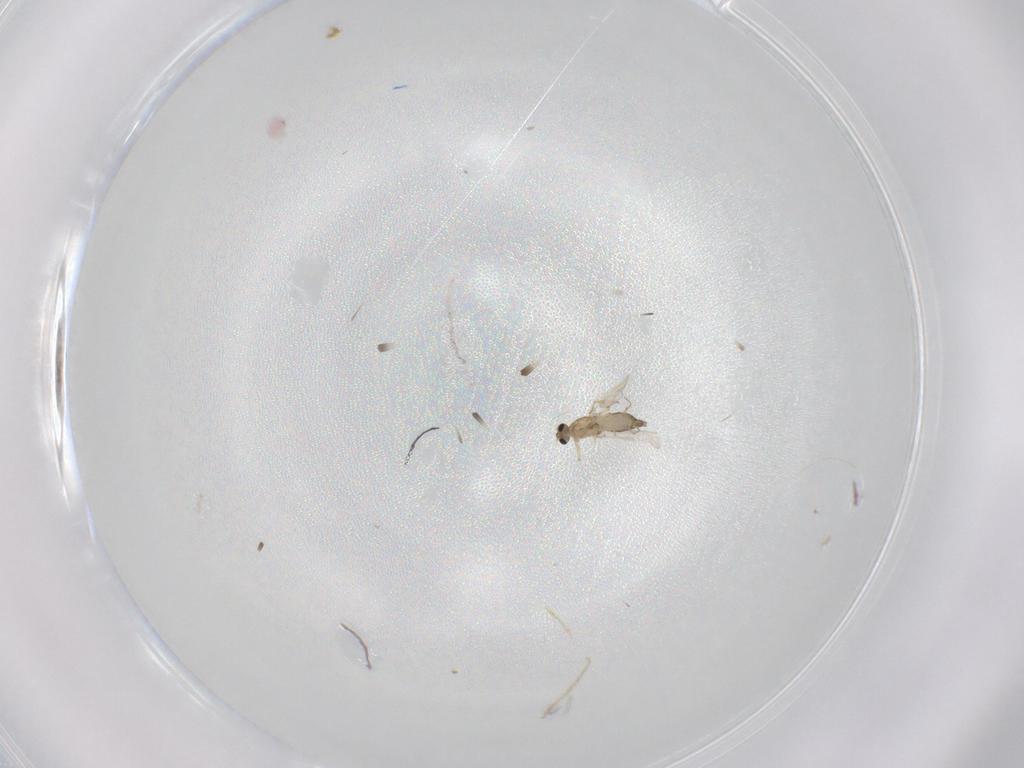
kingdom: Animalia
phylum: Arthropoda
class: Insecta
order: Diptera
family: Chironomidae
